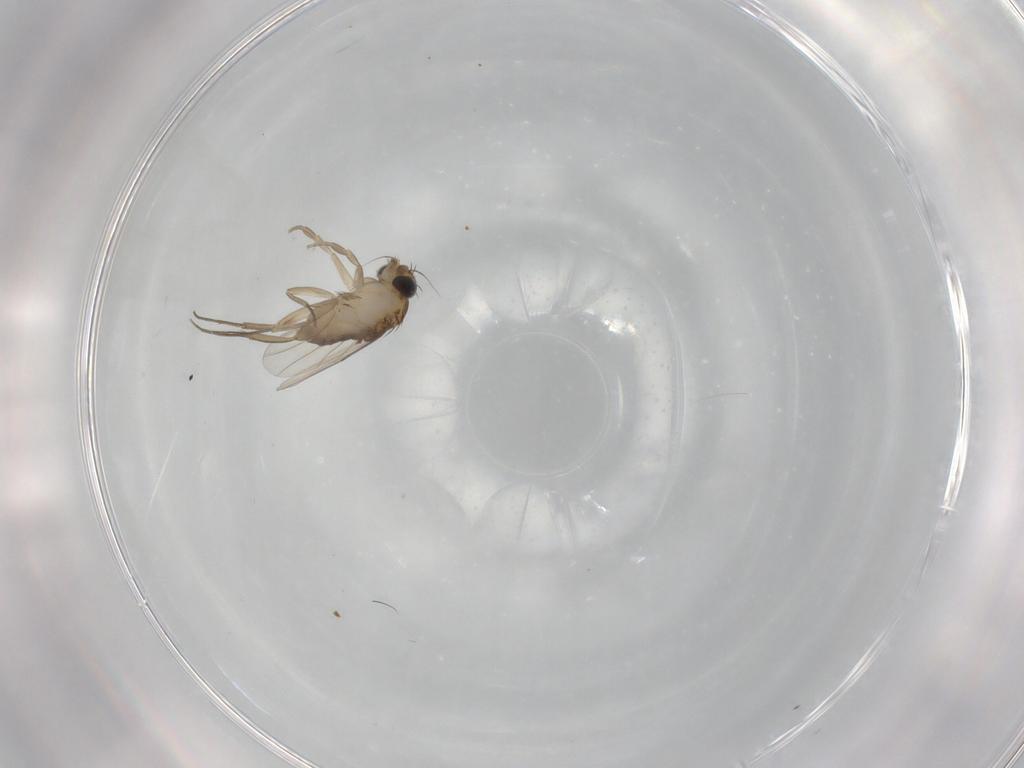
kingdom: Animalia
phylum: Arthropoda
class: Insecta
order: Diptera
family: Phoridae
